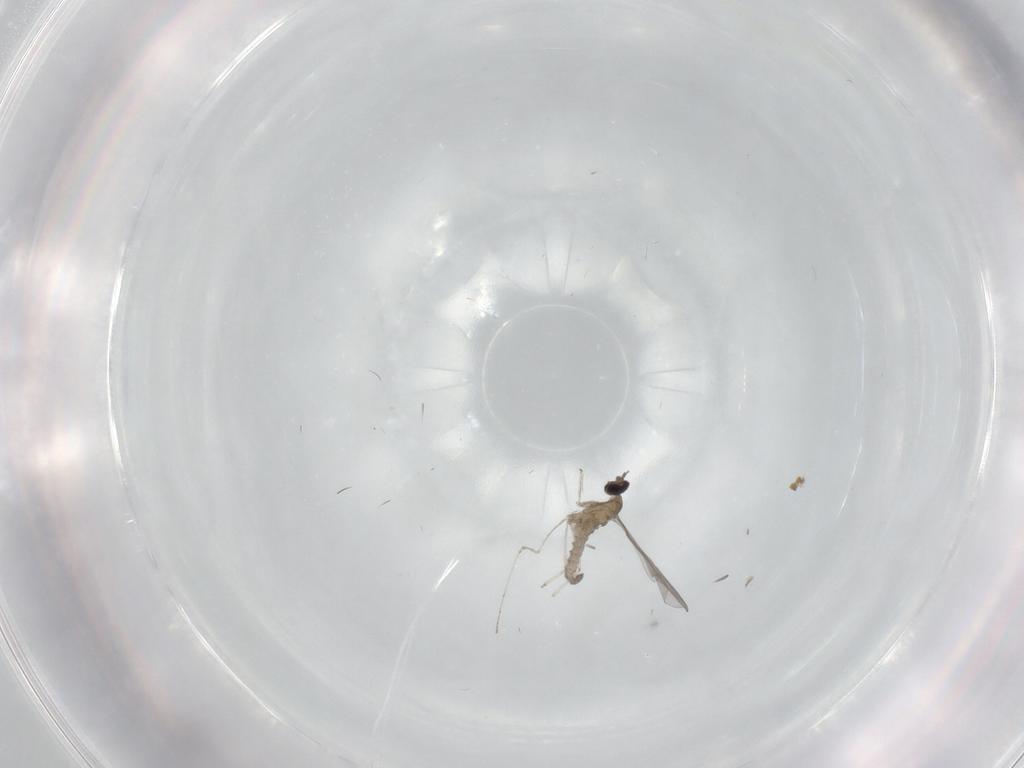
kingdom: Animalia
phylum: Arthropoda
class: Insecta
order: Diptera
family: Cecidomyiidae
